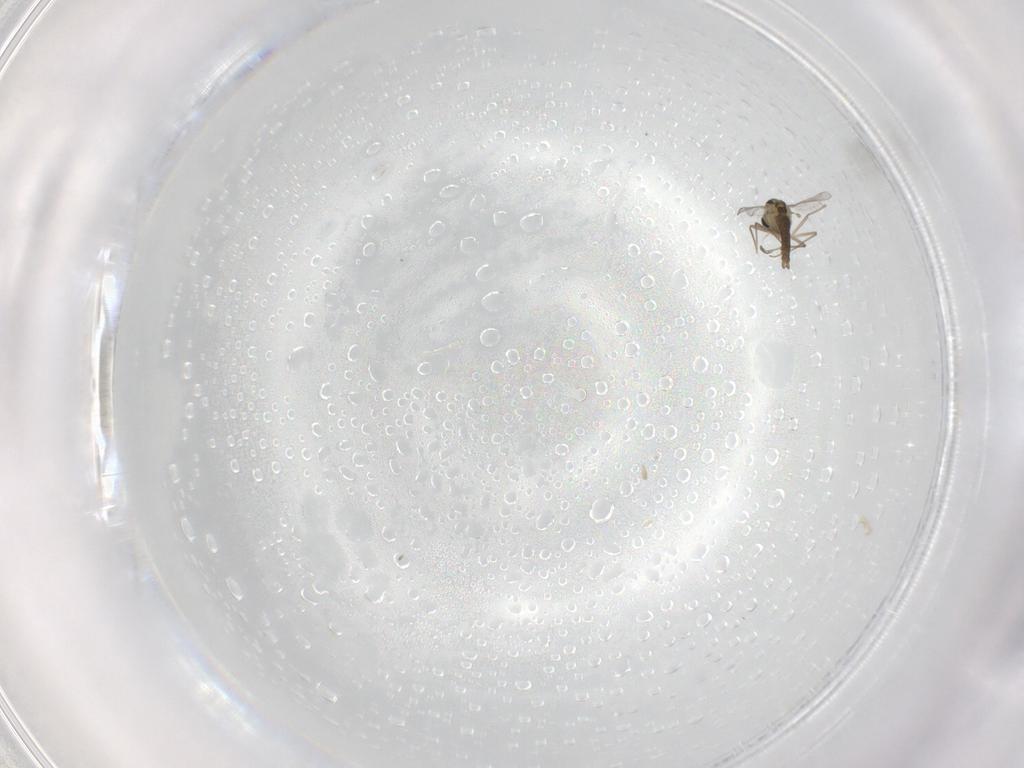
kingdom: Animalia
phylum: Arthropoda
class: Insecta
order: Diptera
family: Chironomidae
